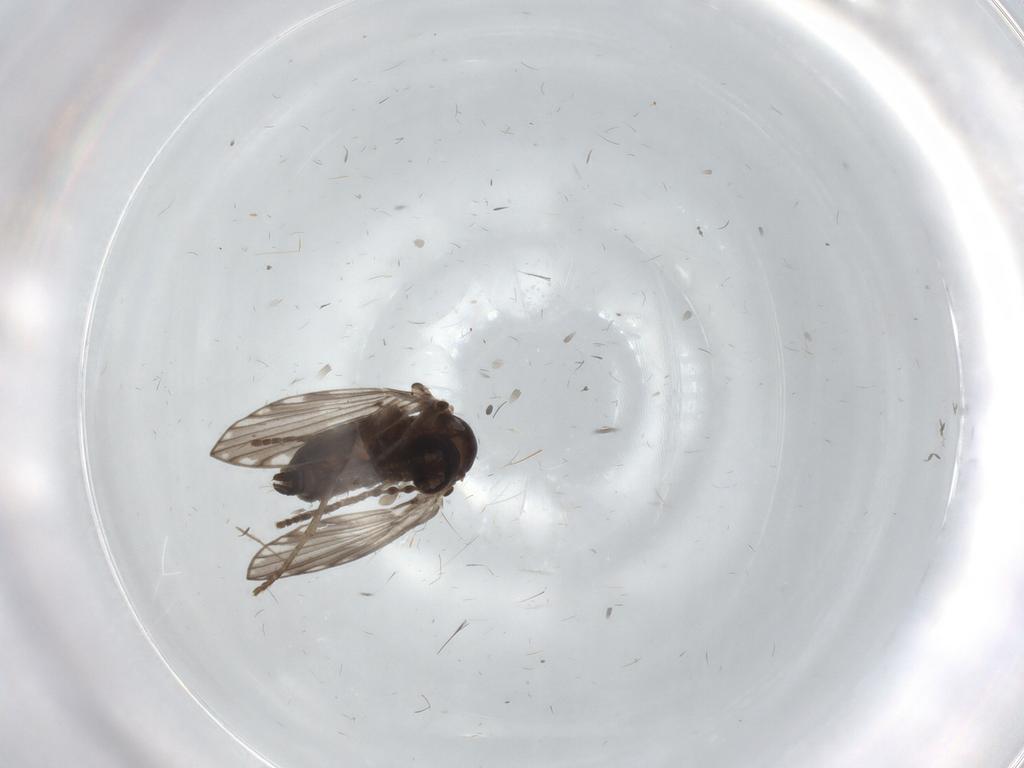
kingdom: Animalia
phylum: Arthropoda
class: Insecta
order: Diptera
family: Psychodidae
